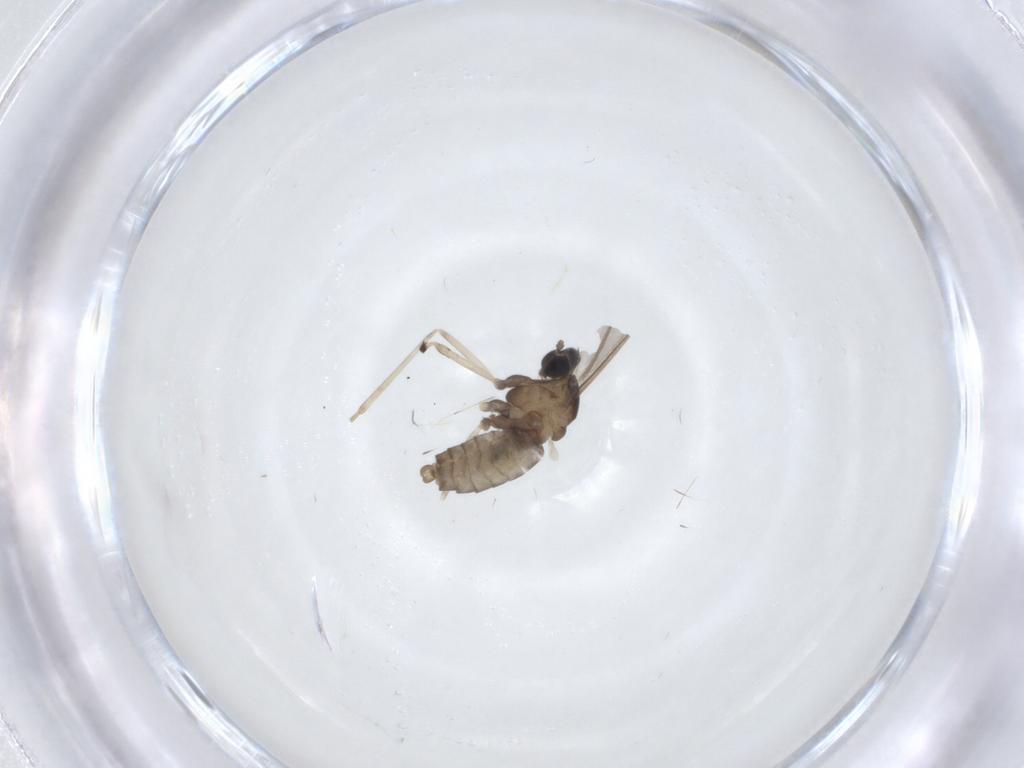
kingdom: Animalia
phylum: Arthropoda
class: Insecta
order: Diptera
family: Cecidomyiidae
